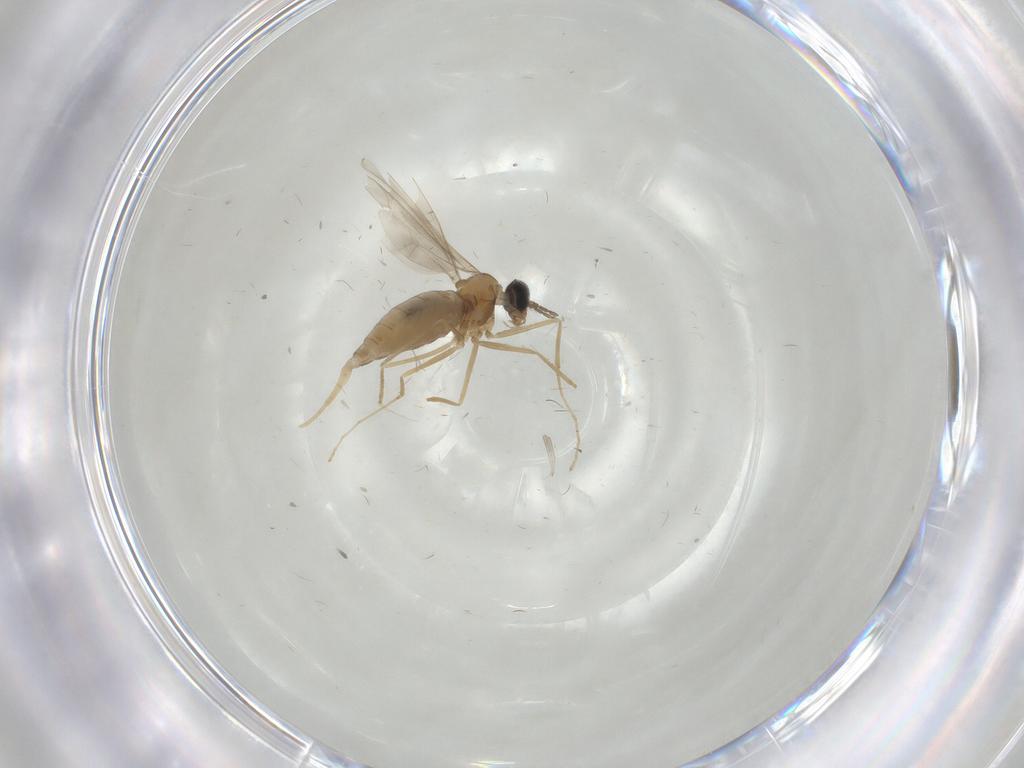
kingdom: Animalia
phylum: Arthropoda
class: Insecta
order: Diptera
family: Cecidomyiidae
